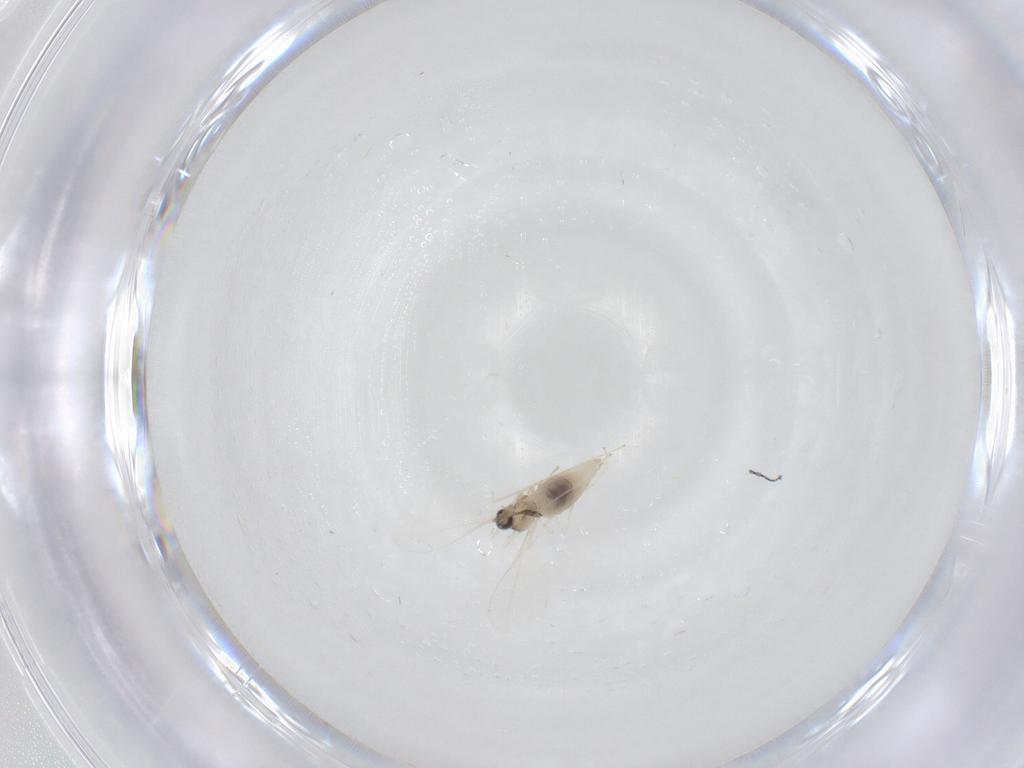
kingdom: Animalia
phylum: Arthropoda
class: Insecta
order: Diptera
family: Cecidomyiidae
